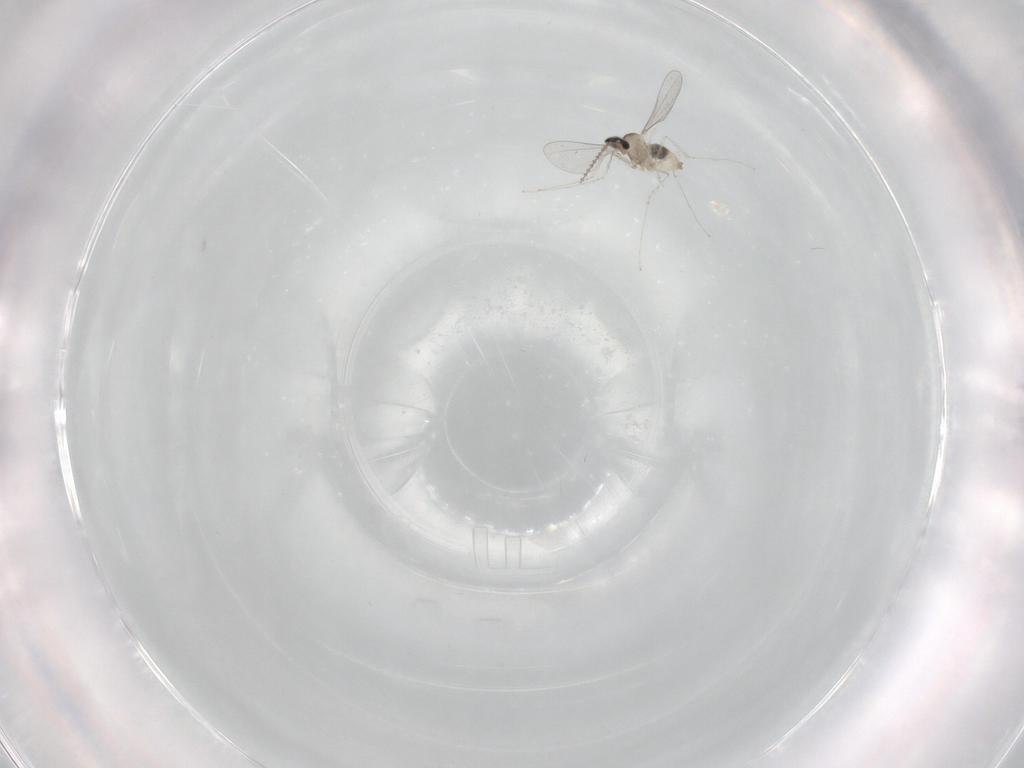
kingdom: Animalia
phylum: Arthropoda
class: Insecta
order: Diptera
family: Cecidomyiidae
